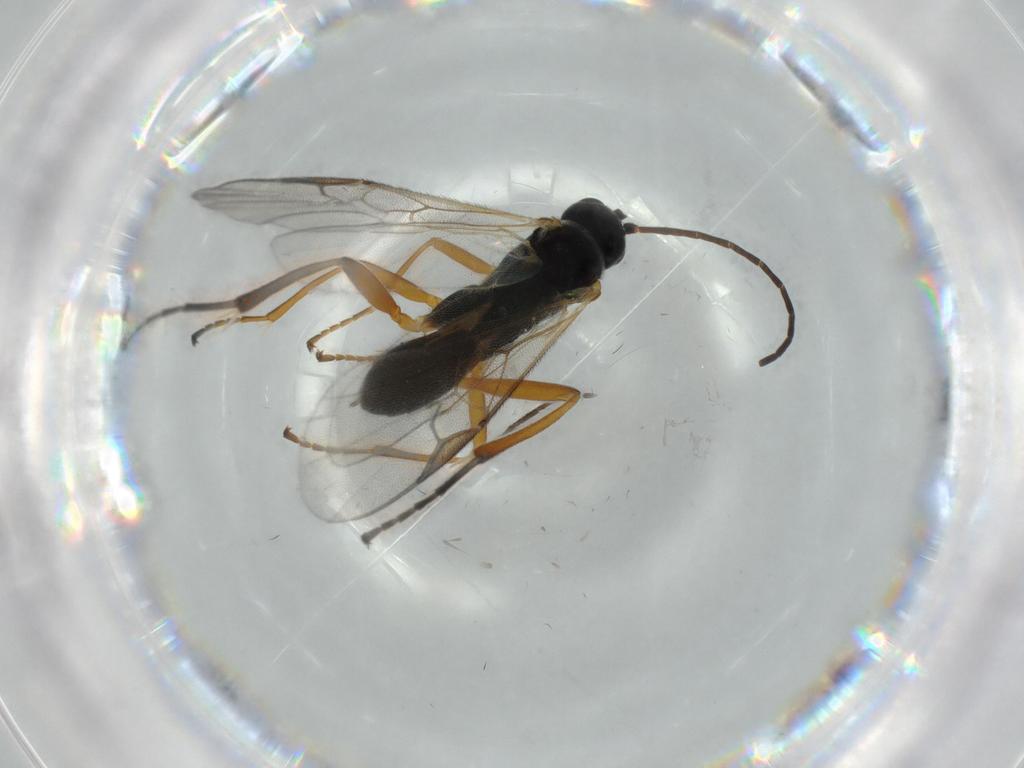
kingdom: Animalia
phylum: Arthropoda
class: Insecta
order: Hymenoptera
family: Braconidae
